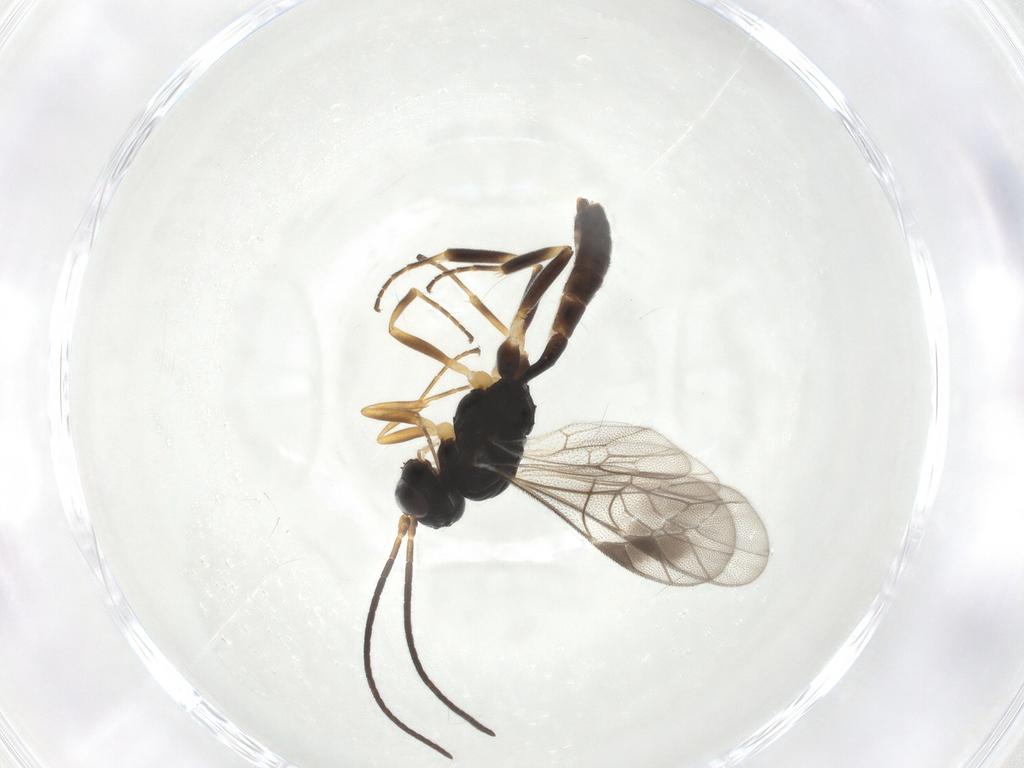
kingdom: Animalia
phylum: Arthropoda
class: Insecta
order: Hymenoptera
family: Ichneumonidae
